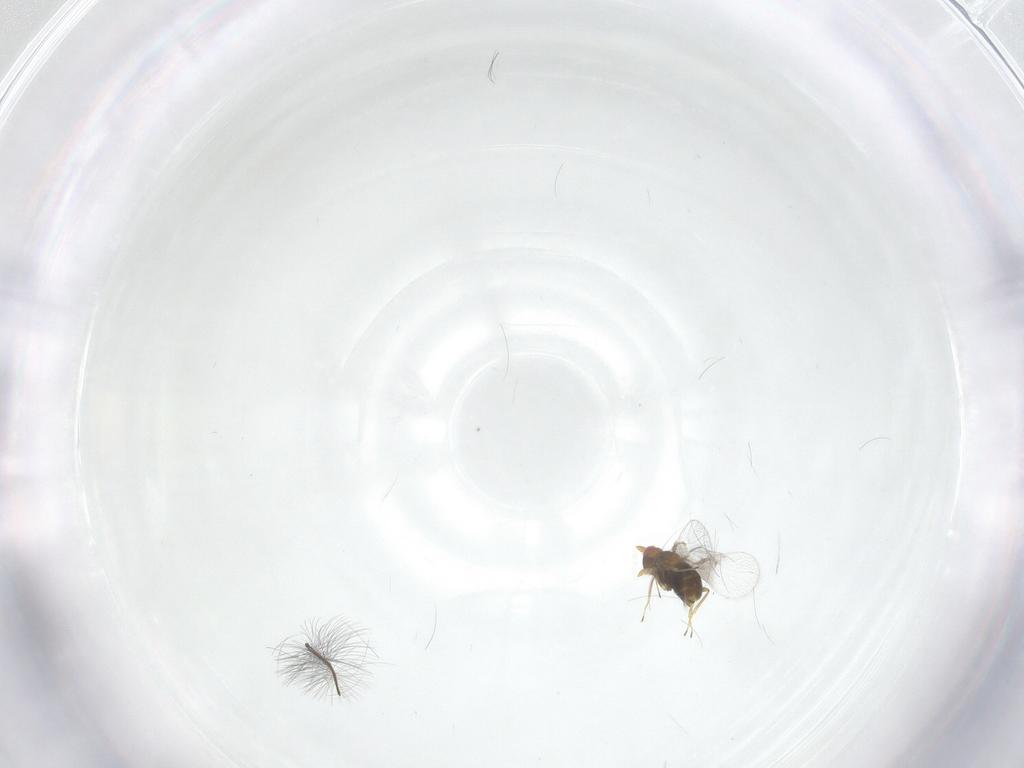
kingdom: Animalia
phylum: Arthropoda
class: Insecta
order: Hymenoptera
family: Trichogrammatidae
